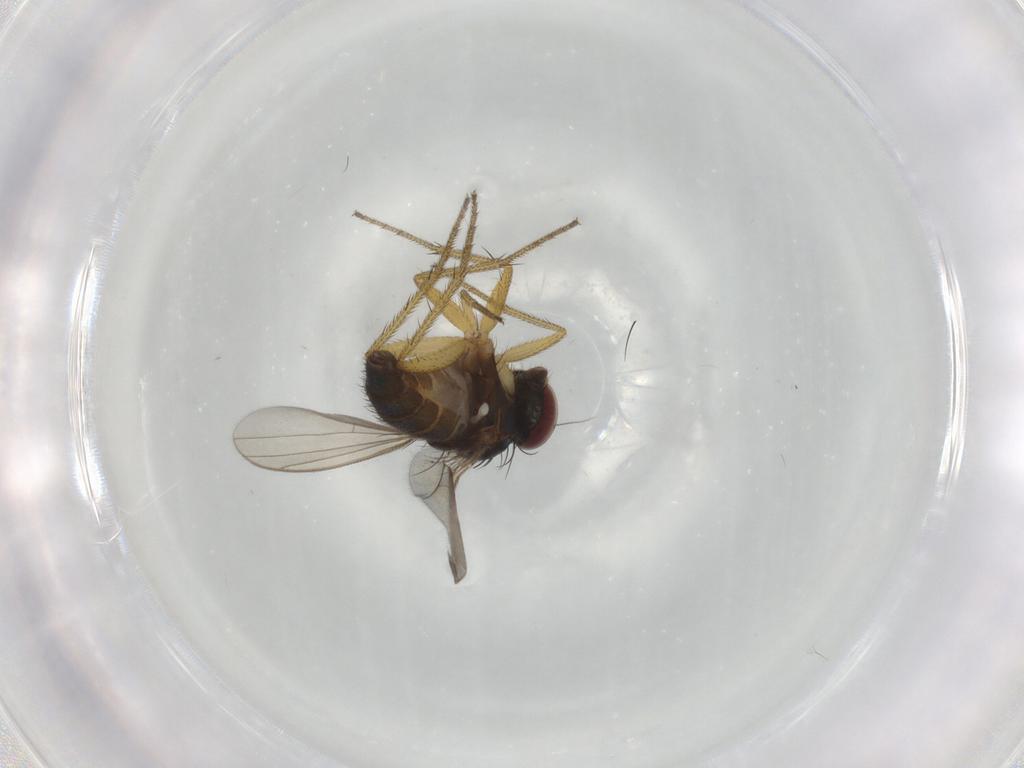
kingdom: Animalia
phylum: Arthropoda
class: Insecta
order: Diptera
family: Dolichopodidae
